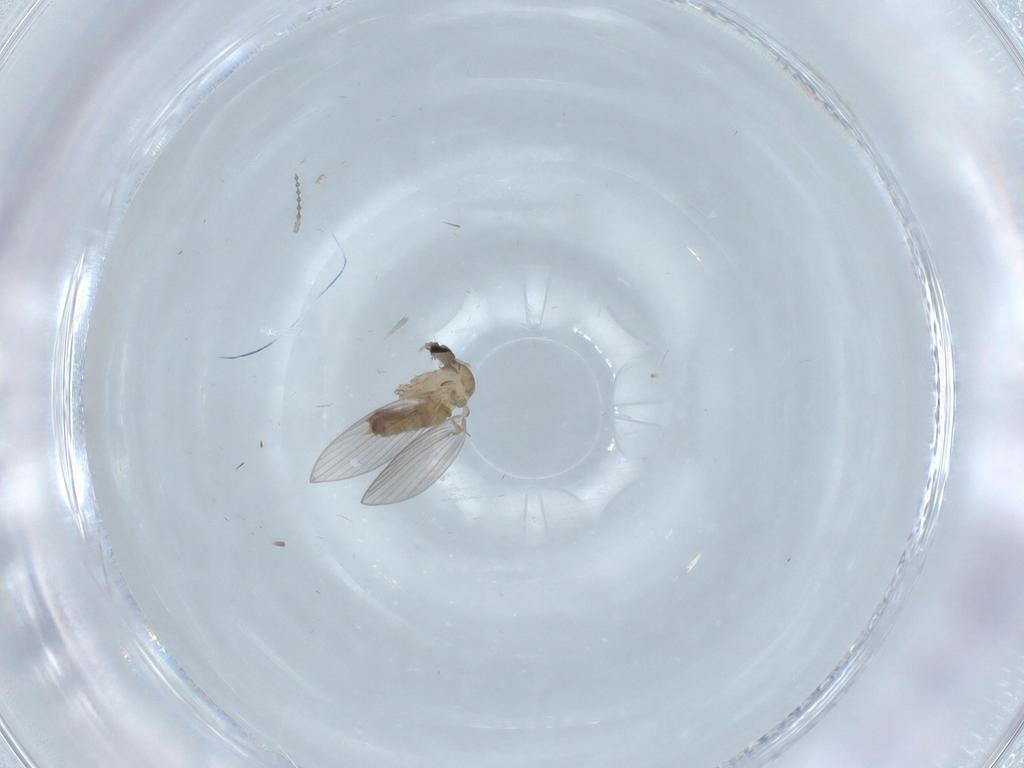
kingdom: Animalia
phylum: Arthropoda
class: Insecta
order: Diptera
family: Psychodidae
